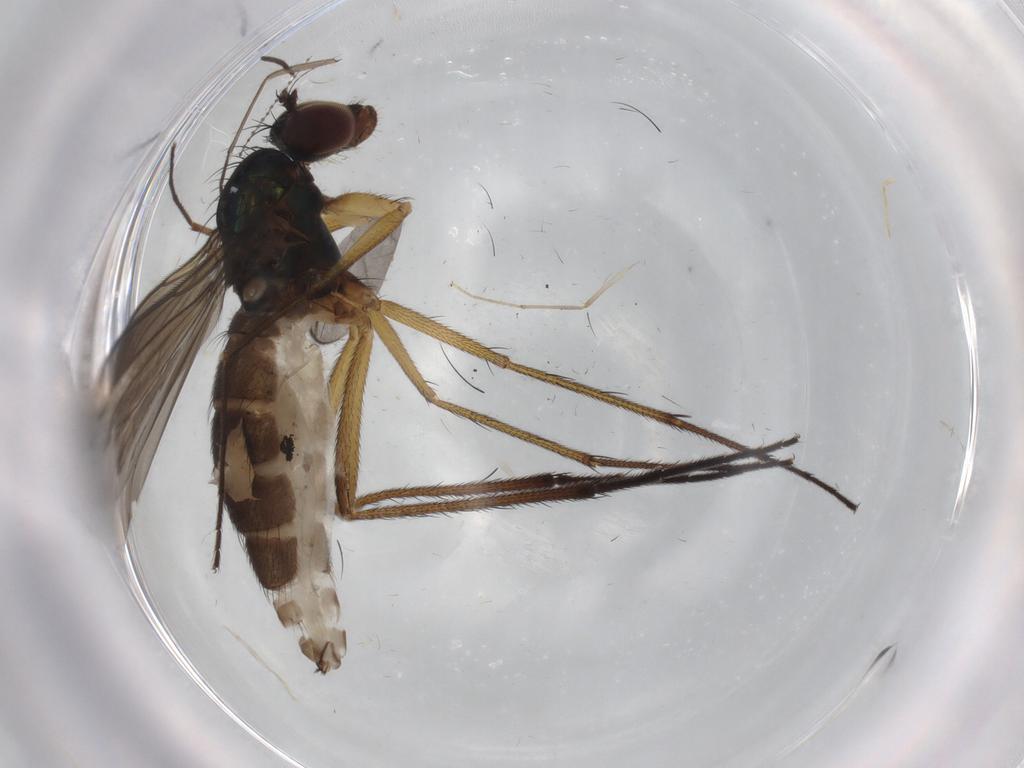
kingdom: Animalia
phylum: Arthropoda
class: Insecta
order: Diptera
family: Dolichopodidae
